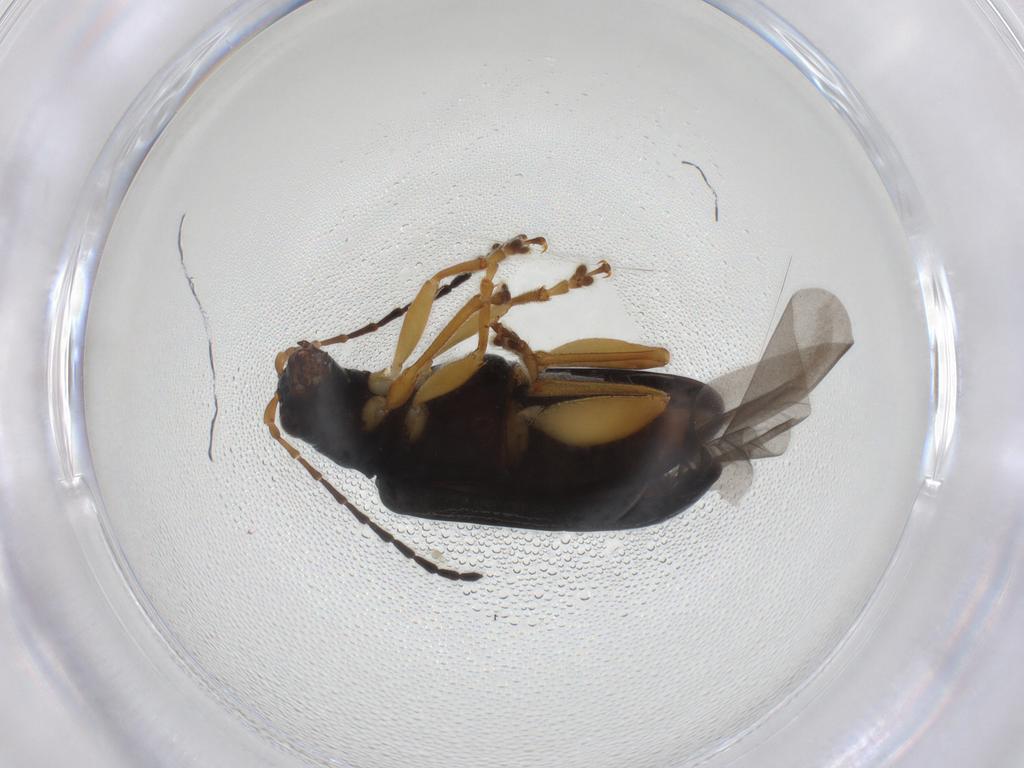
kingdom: Animalia
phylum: Arthropoda
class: Insecta
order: Coleoptera
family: Chrysomelidae
